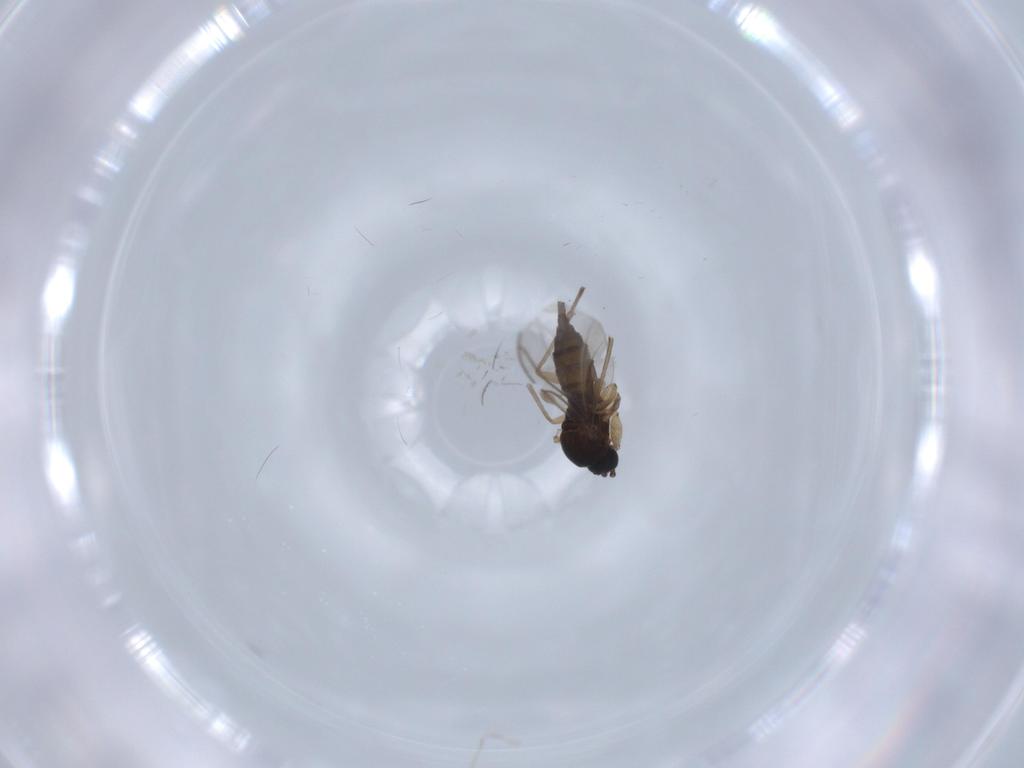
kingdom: Animalia
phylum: Arthropoda
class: Insecta
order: Diptera
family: Sciaridae
